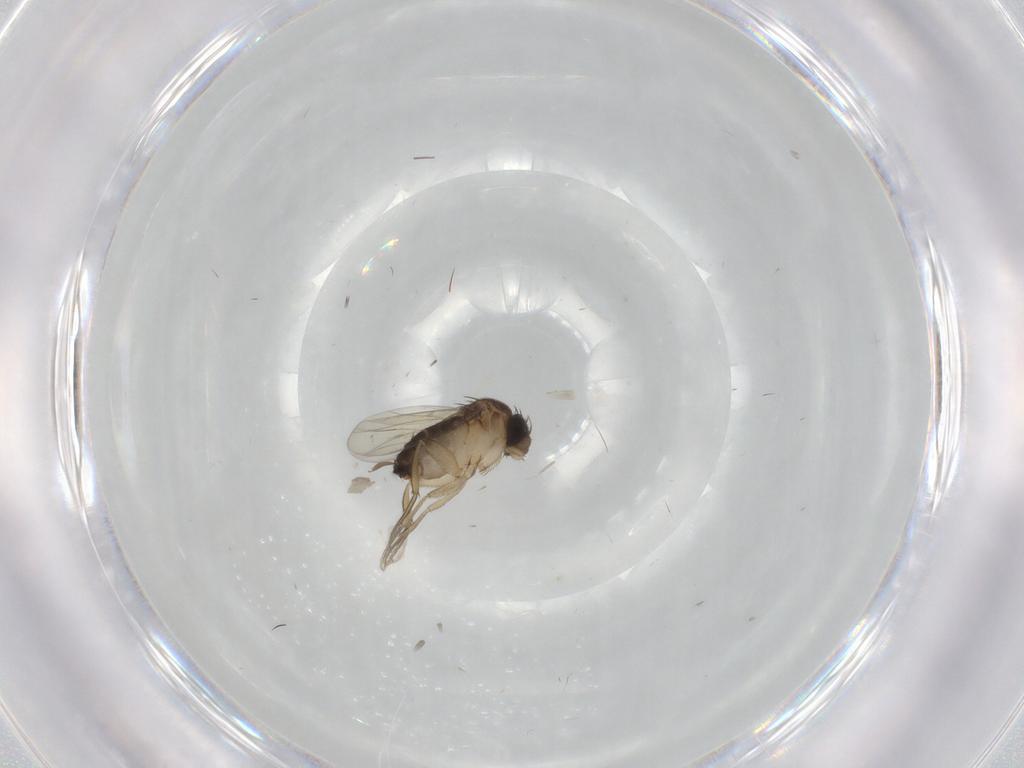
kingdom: Animalia
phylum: Arthropoda
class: Insecta
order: Diptera
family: Phoridae
